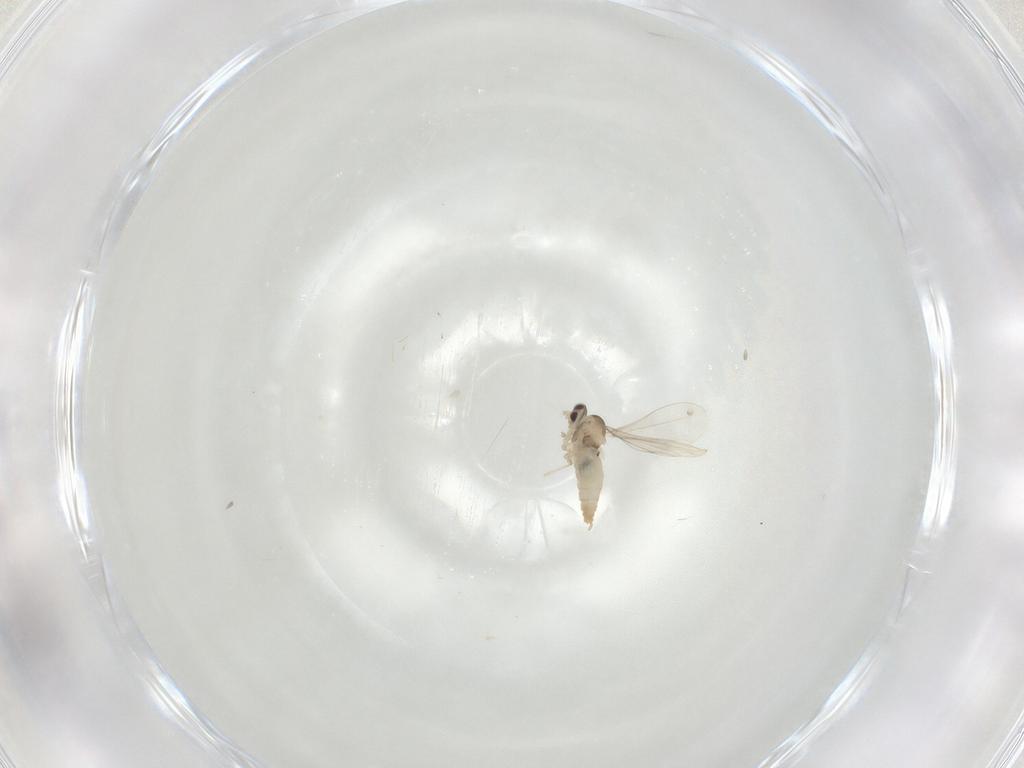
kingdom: Animalia
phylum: Arthropoda
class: Insecta
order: Diptera
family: Cecidomyiidae
